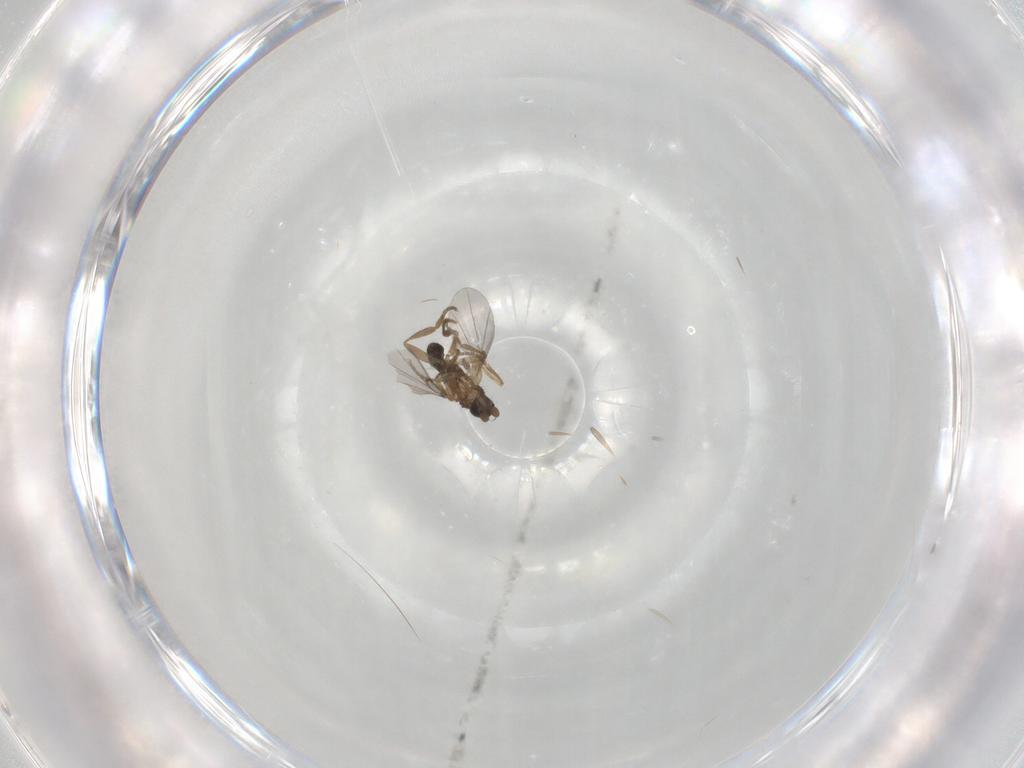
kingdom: Animalia
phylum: Arthropoda
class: Insecta
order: Diptera
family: Phoridae
